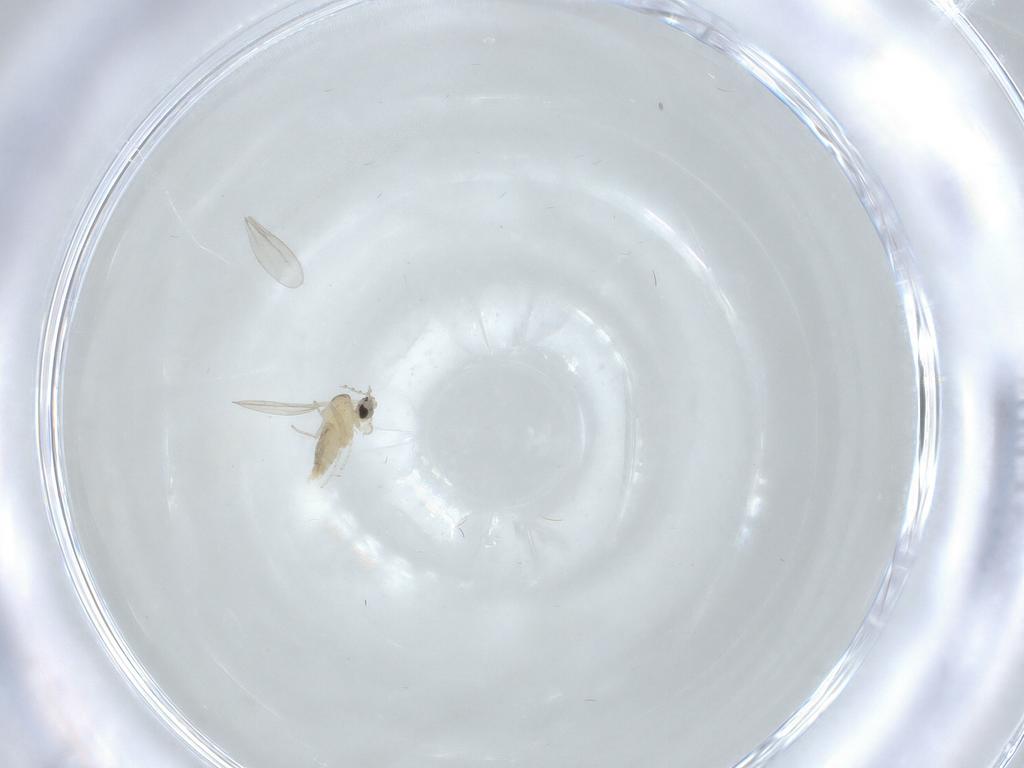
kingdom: Animalia
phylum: Arthropoda
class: Insecta
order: Diptera
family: Cecidomyiidae
